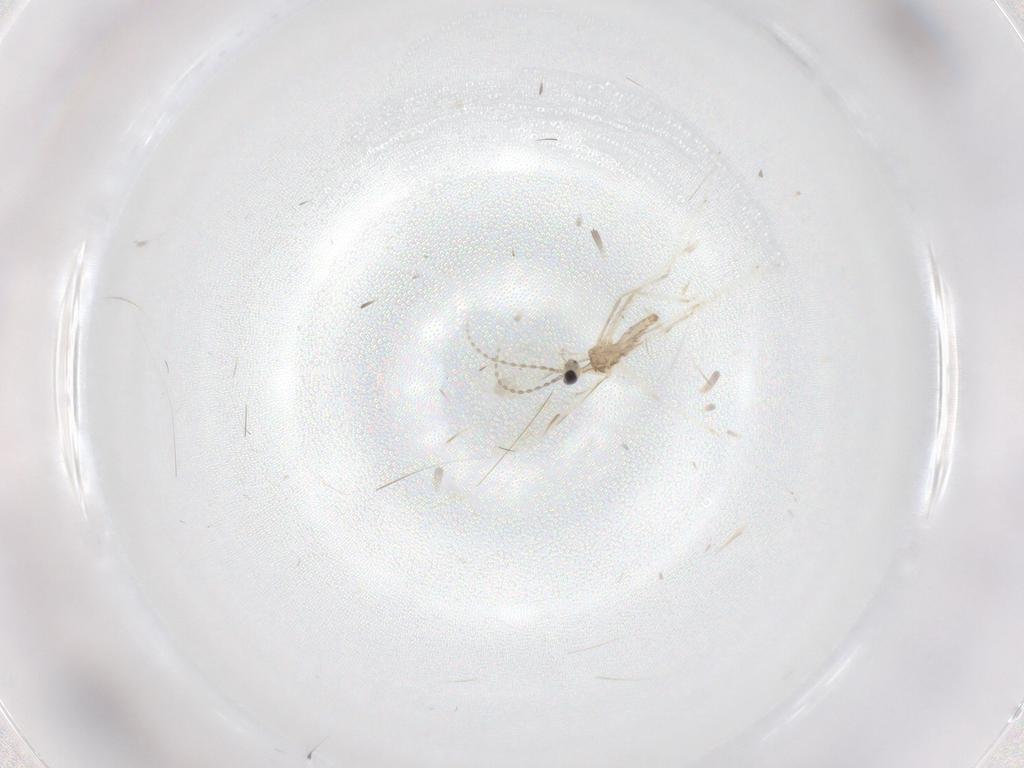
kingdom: Animalia
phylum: Arthropoda
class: Insecta
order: Diptera
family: Cecidomyiidae
